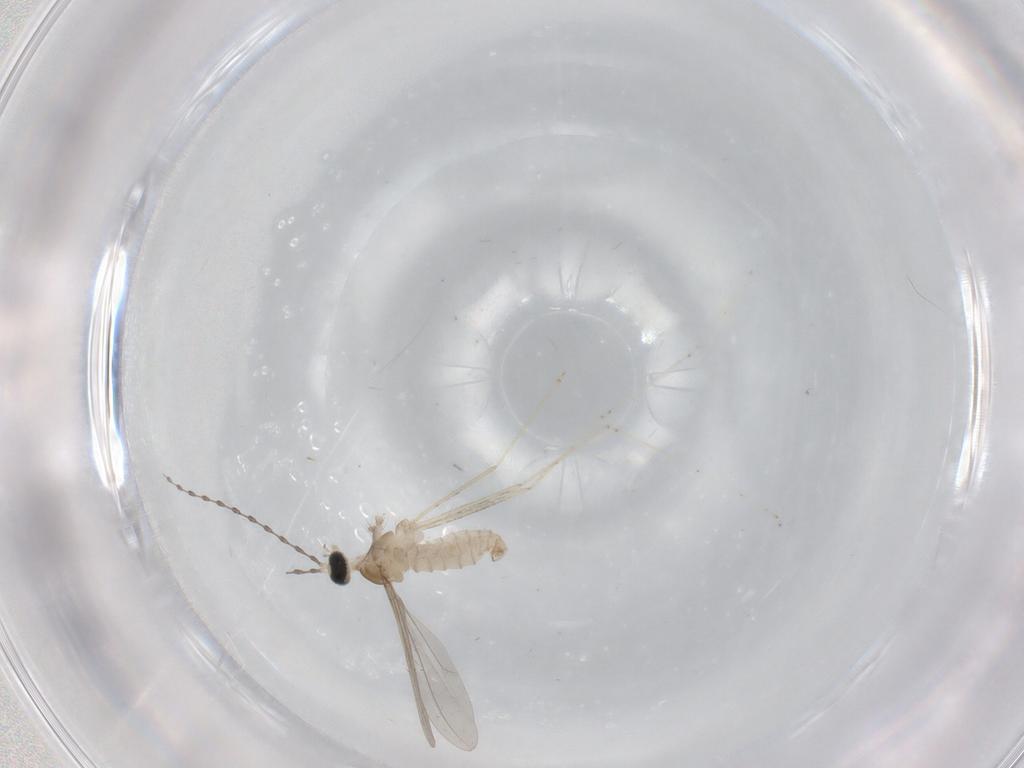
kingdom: Animalia
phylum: Arthropoda
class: Insecta
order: Diptera
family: Cecidomyiidae
